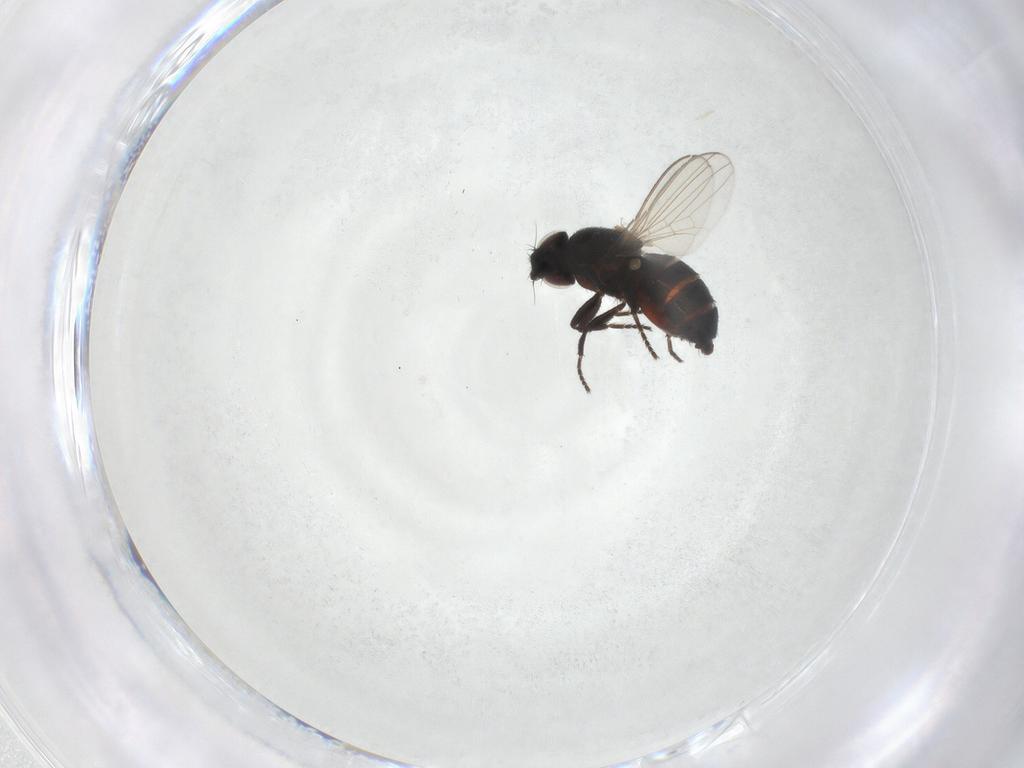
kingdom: Animalia
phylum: Arthropoda
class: Insecta
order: Diptera
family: Milichiidae
